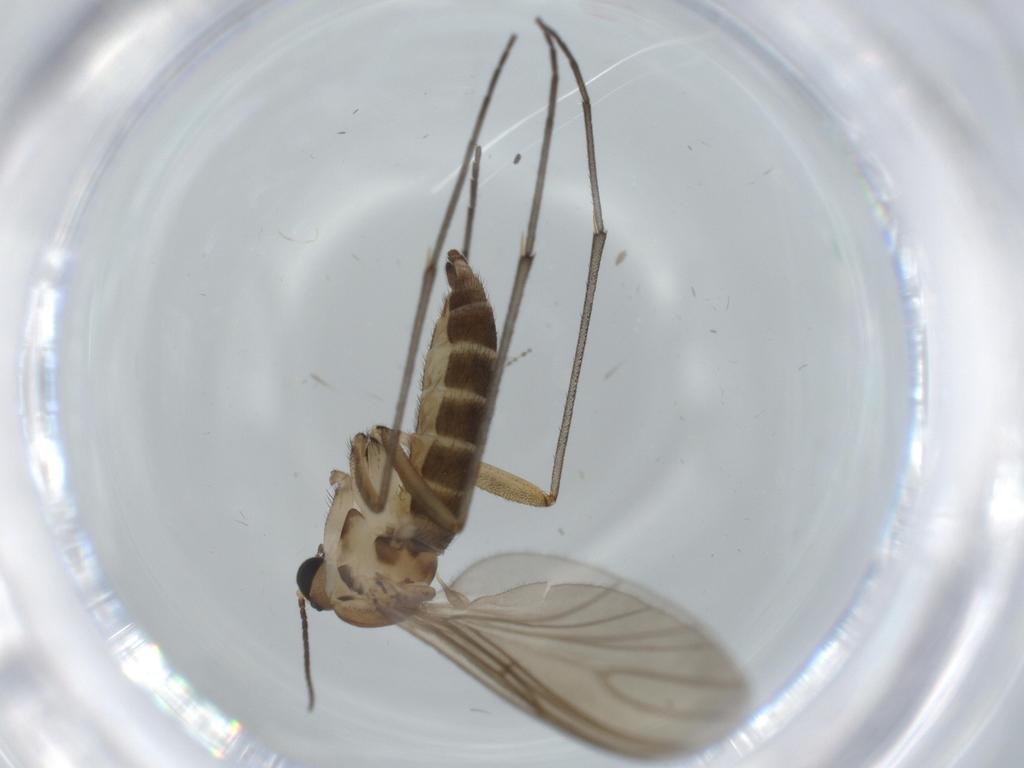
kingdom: Animalia
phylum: Arthropoda
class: Insecta
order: Diptera
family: Sciaridae
